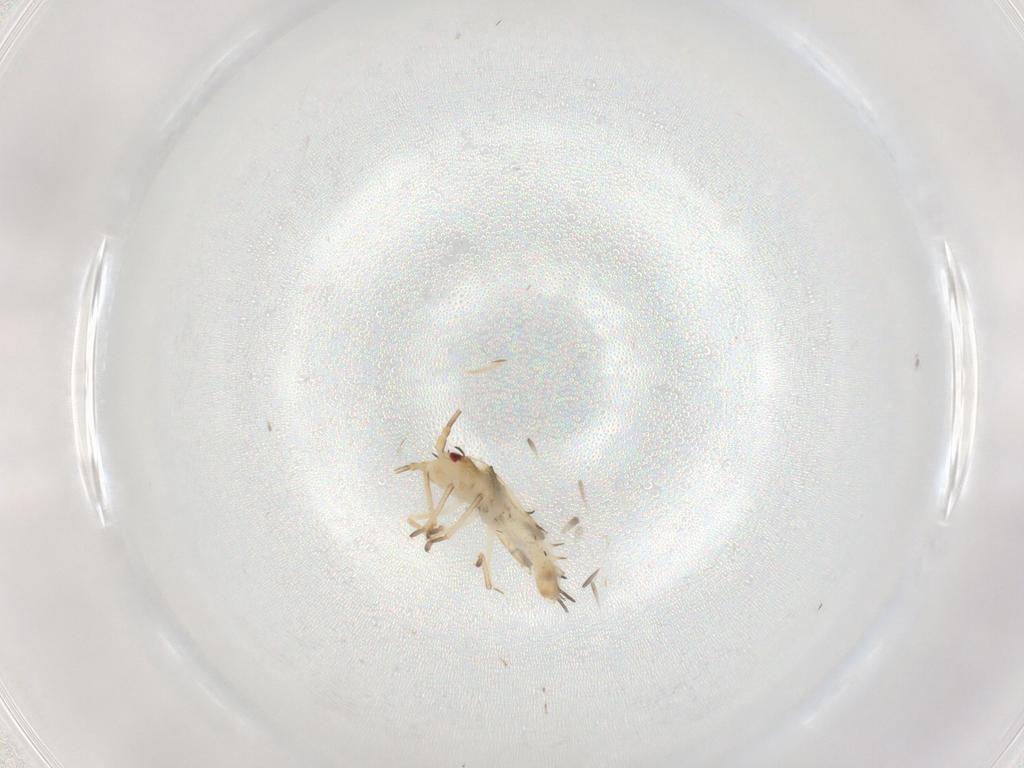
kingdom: Animalia
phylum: Arthropoda
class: Insecta
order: Hemiptera
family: Tingidae
